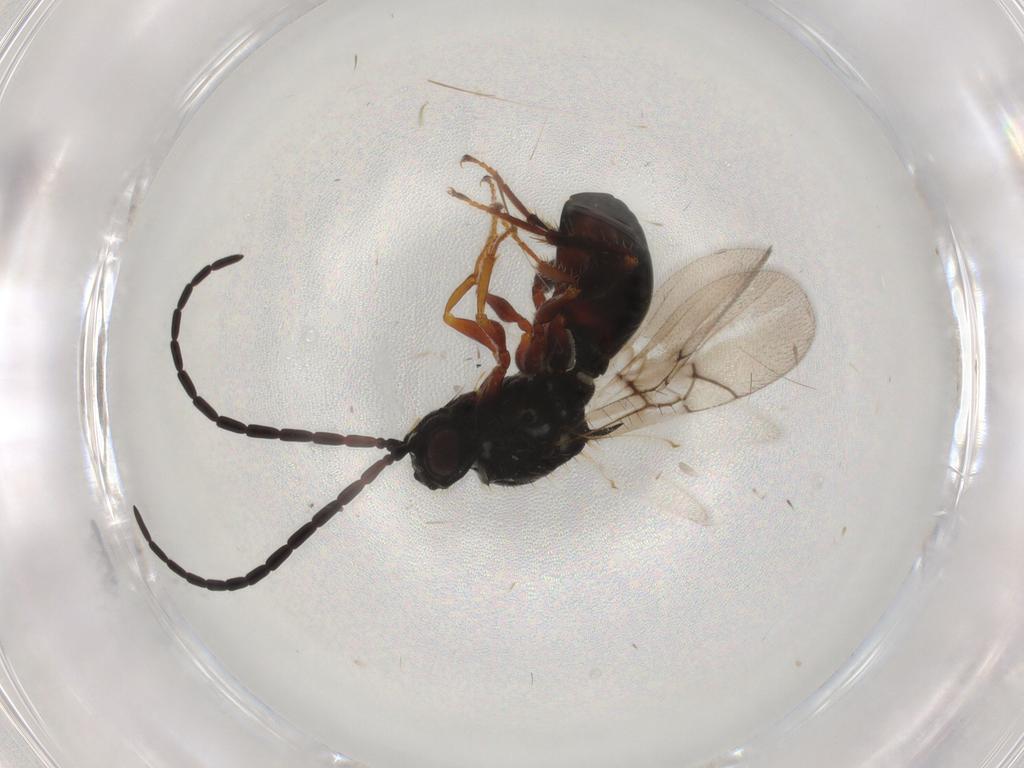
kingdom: Animalia
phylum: Arthropoda
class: Insecta
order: Hymenoptera
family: Figitidae
